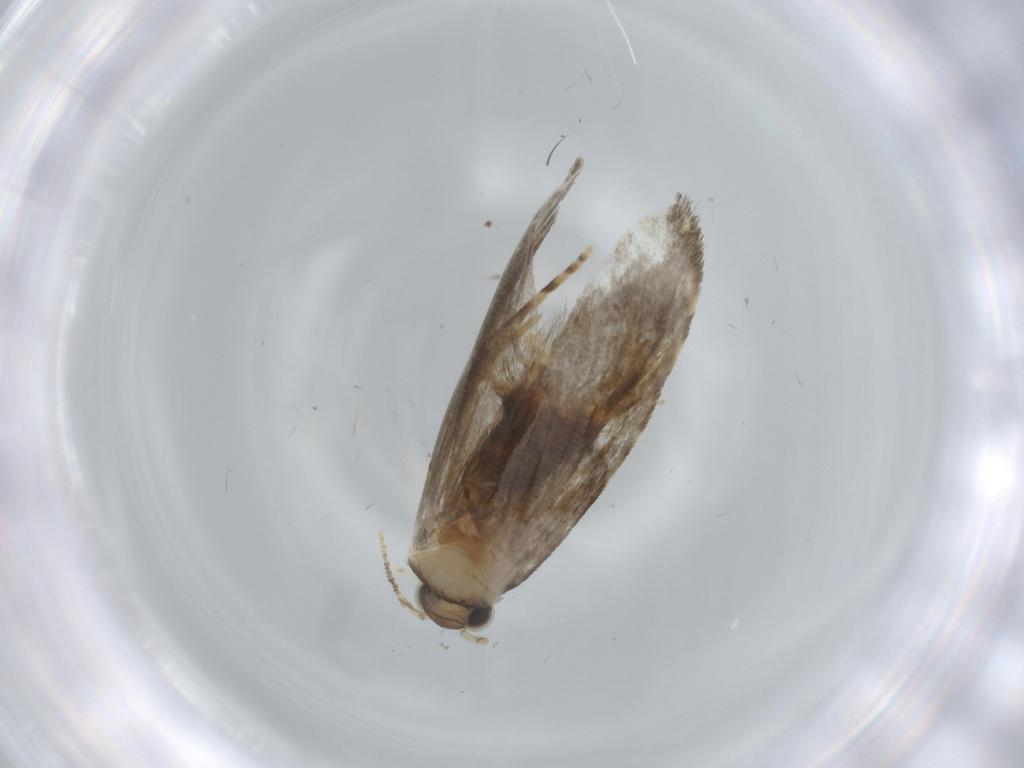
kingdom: Animalia
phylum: Arthropoda
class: Insecta
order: Lepidoptera
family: Tineidae
